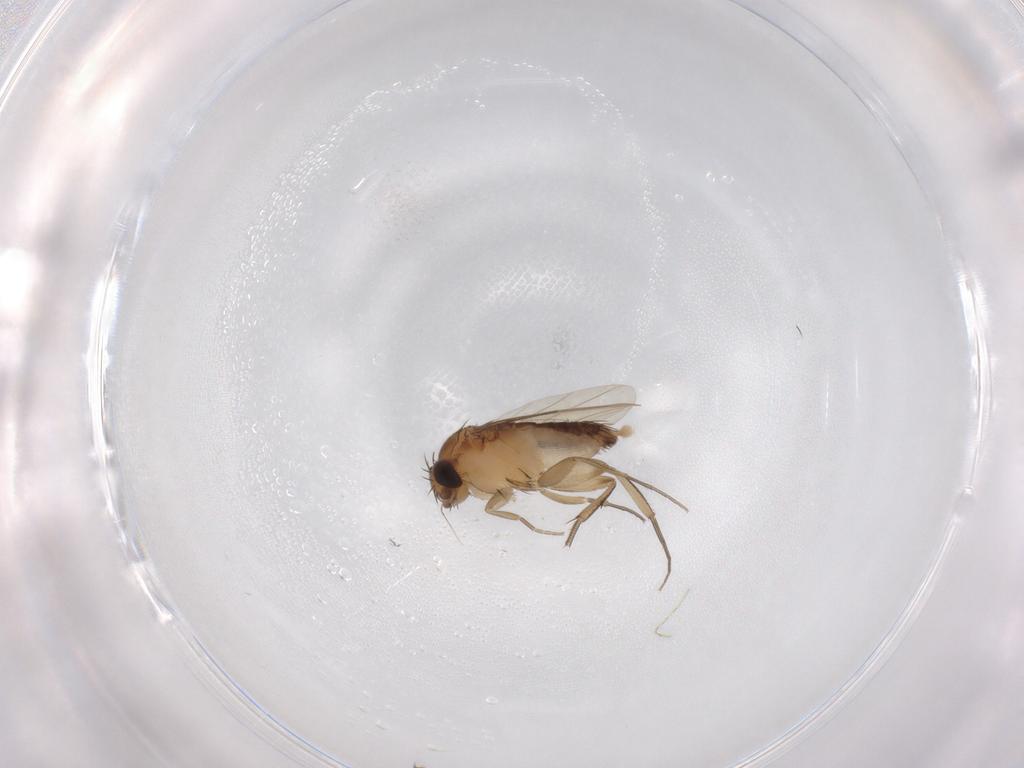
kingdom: Animalia
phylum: Arthropoda
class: Insecta
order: Diptera
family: Phoridae
